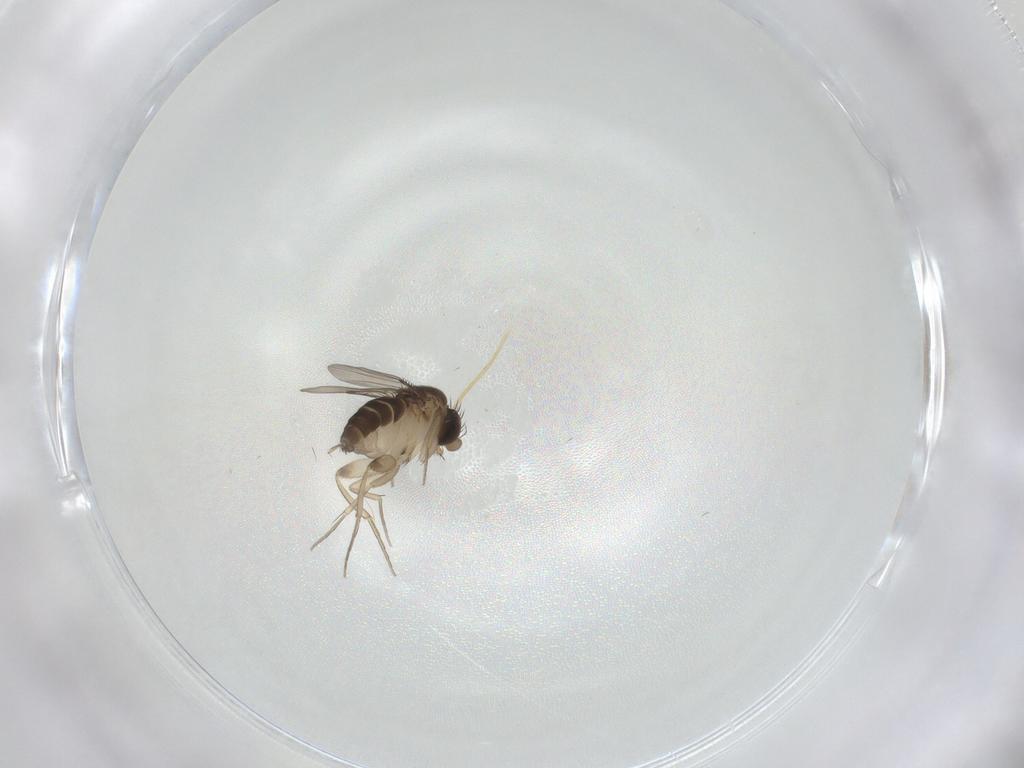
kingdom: Animalia
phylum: Arthropoda
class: Insecta
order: Diptera
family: Phoridae
